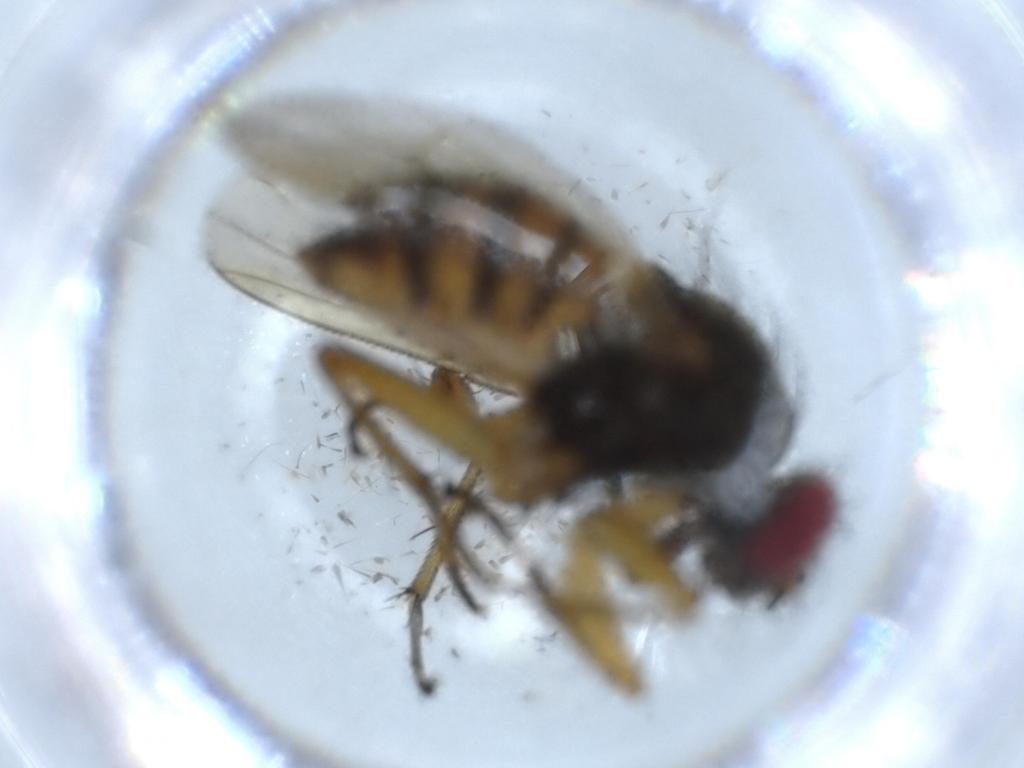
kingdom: Animalia
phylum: Arthropoda
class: Insecta
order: Diptera
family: Muscidae
